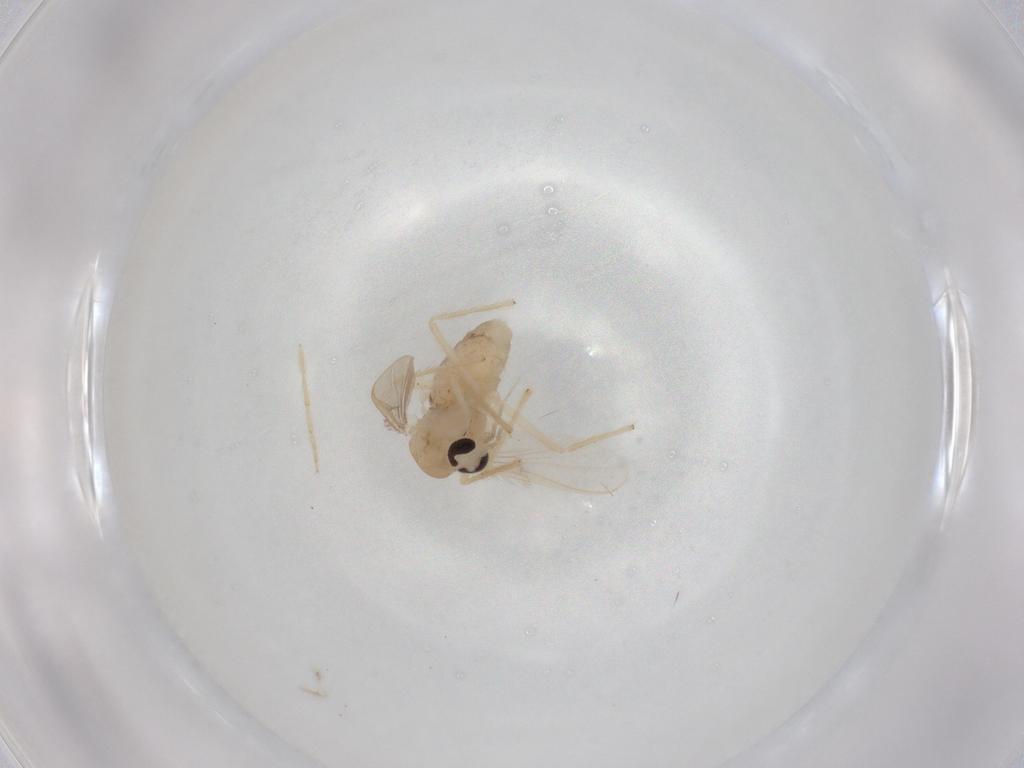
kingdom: Animalia
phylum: Arthropoda
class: Insecta
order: Diptera
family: Chironomidae
